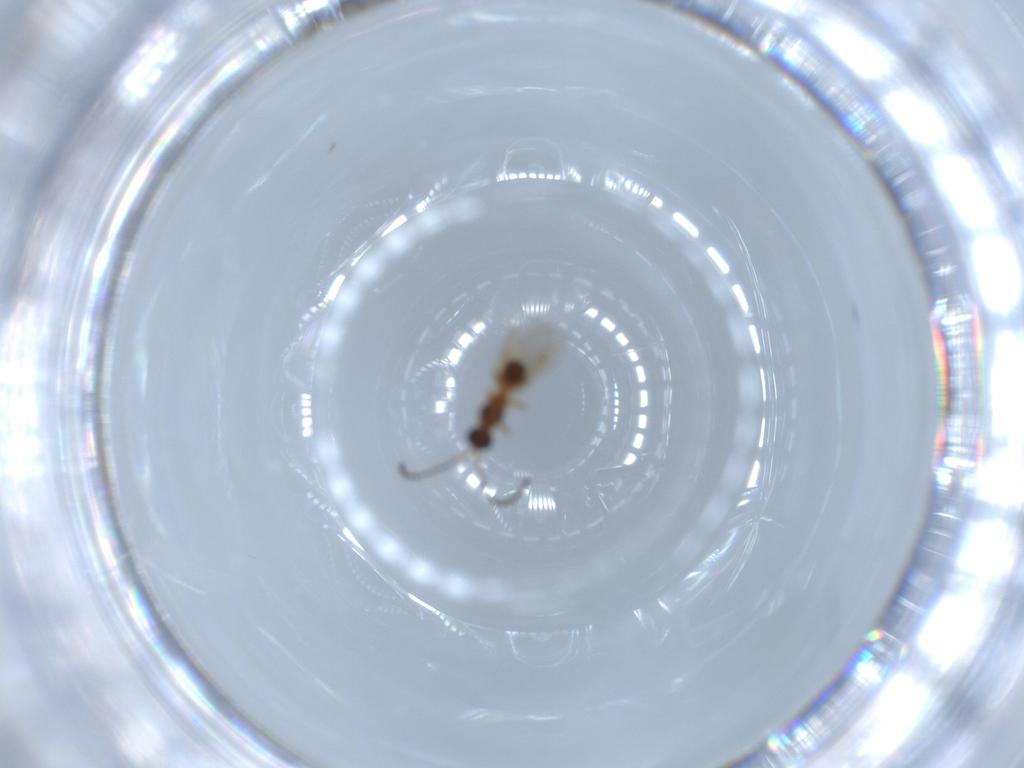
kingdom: Animalia
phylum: Arthropoda
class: Insecta
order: Hymenoptera
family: Diapriidae
